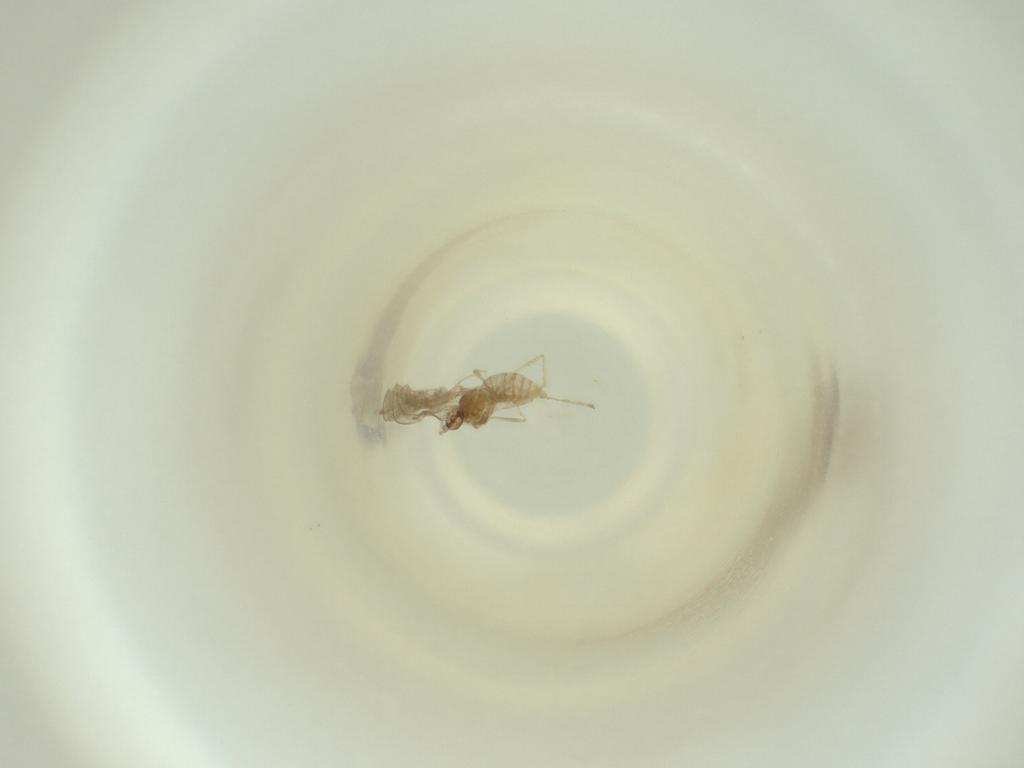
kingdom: Animalia
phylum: Arthropoda
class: Insecta
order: Diptera
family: Cecidomyiidae
